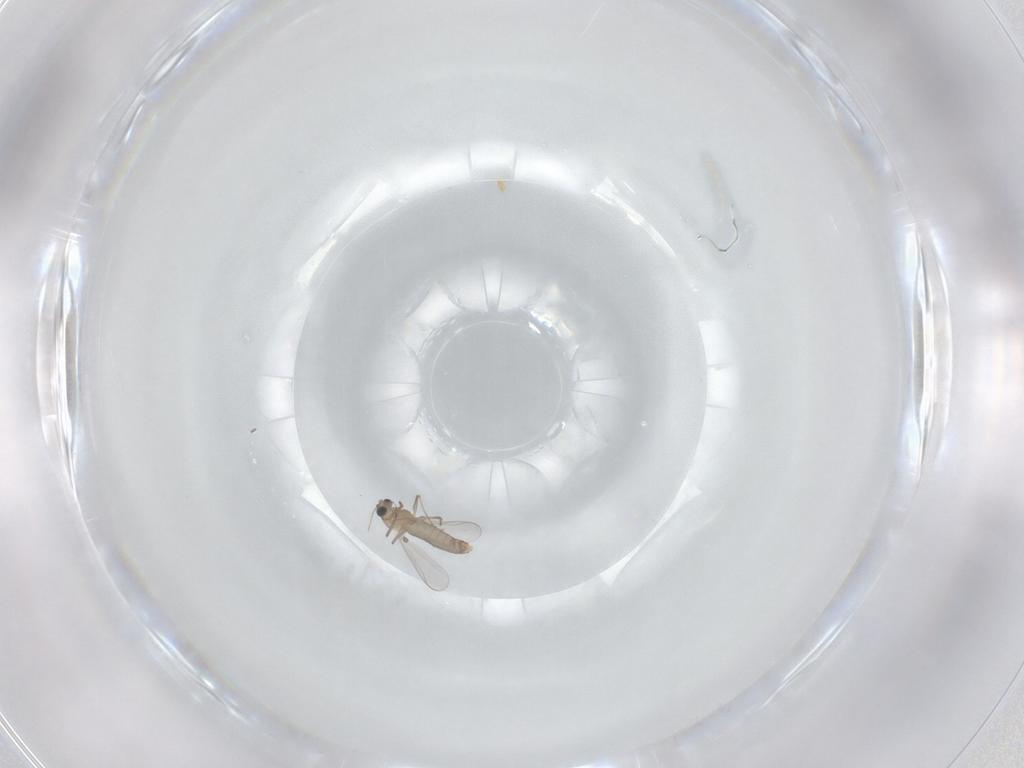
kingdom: Animalia
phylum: Arthropoda
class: Insecta
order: Diptera
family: Chironomidae
